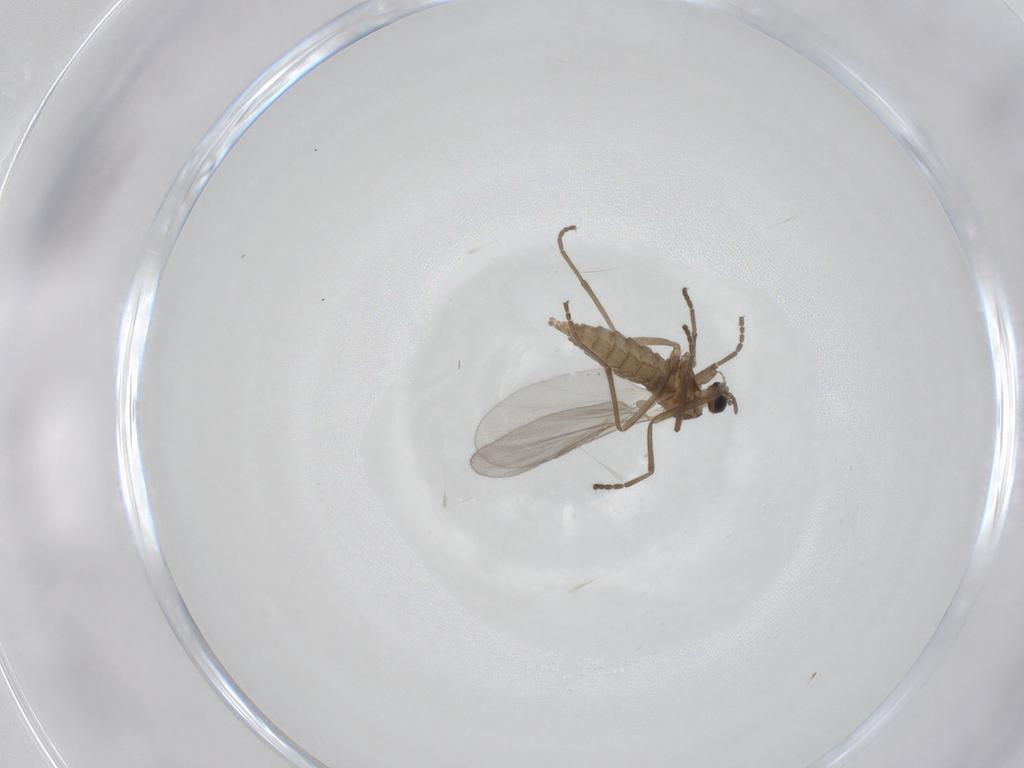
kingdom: Animalia
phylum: Arthropoda
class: Insecta
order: Diptera
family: Cecidomyiidae
